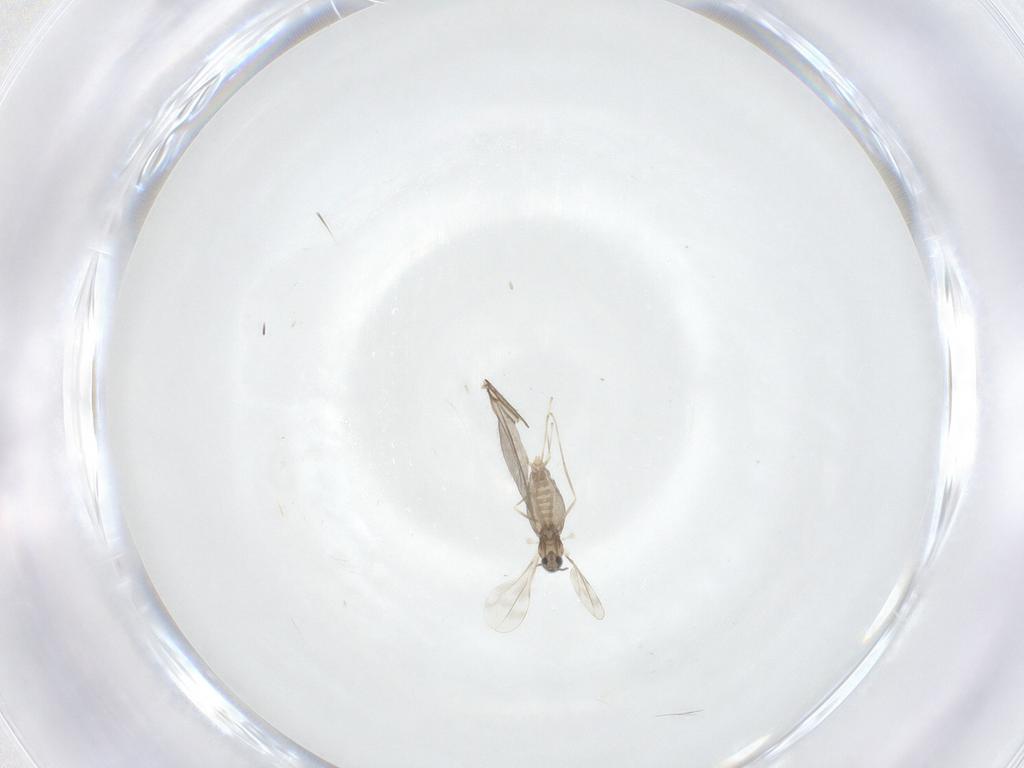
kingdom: Animalia
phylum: Arthropoda
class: Insecta
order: Diptera
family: Cecidomyiidae
